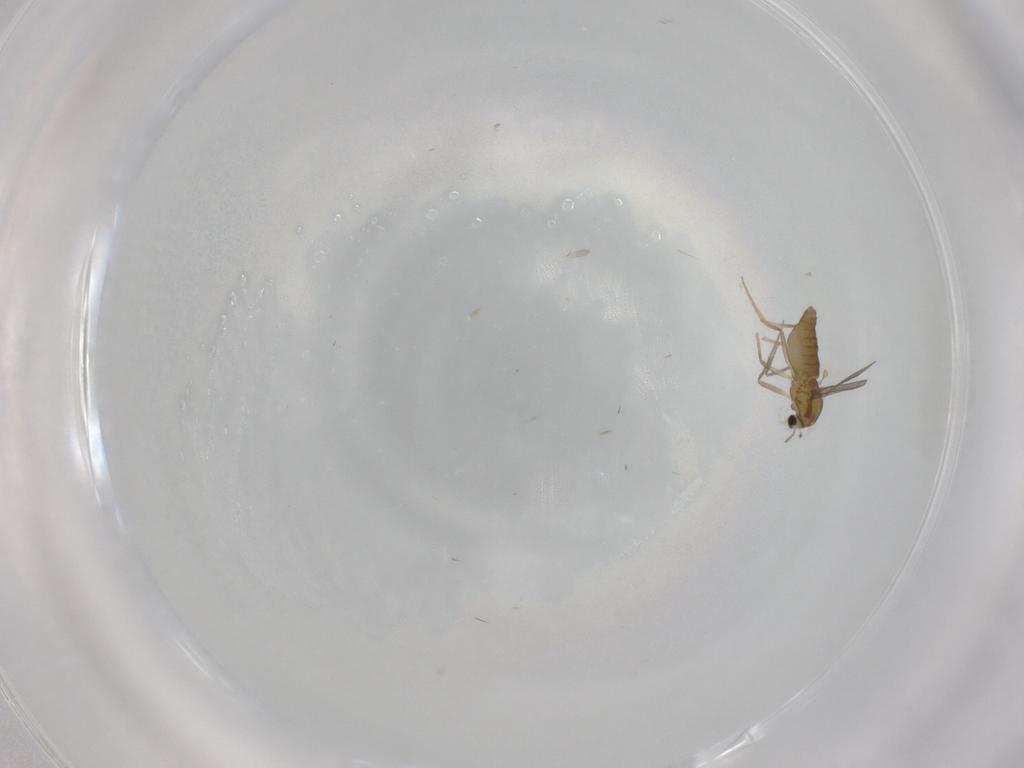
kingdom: Animalia
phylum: Arthropoda
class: Insecta
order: Diptera
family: Chironomidae
